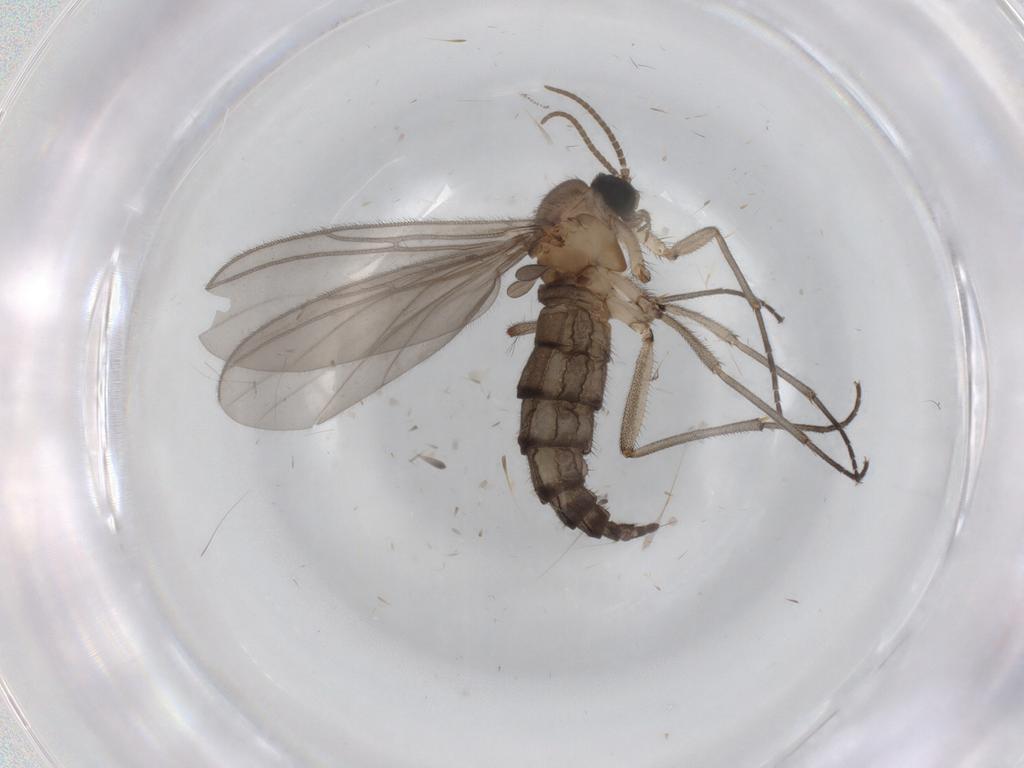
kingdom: Animalia
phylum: Arthropoda
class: Insecta
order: Diptera
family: Cecidomyiidae
